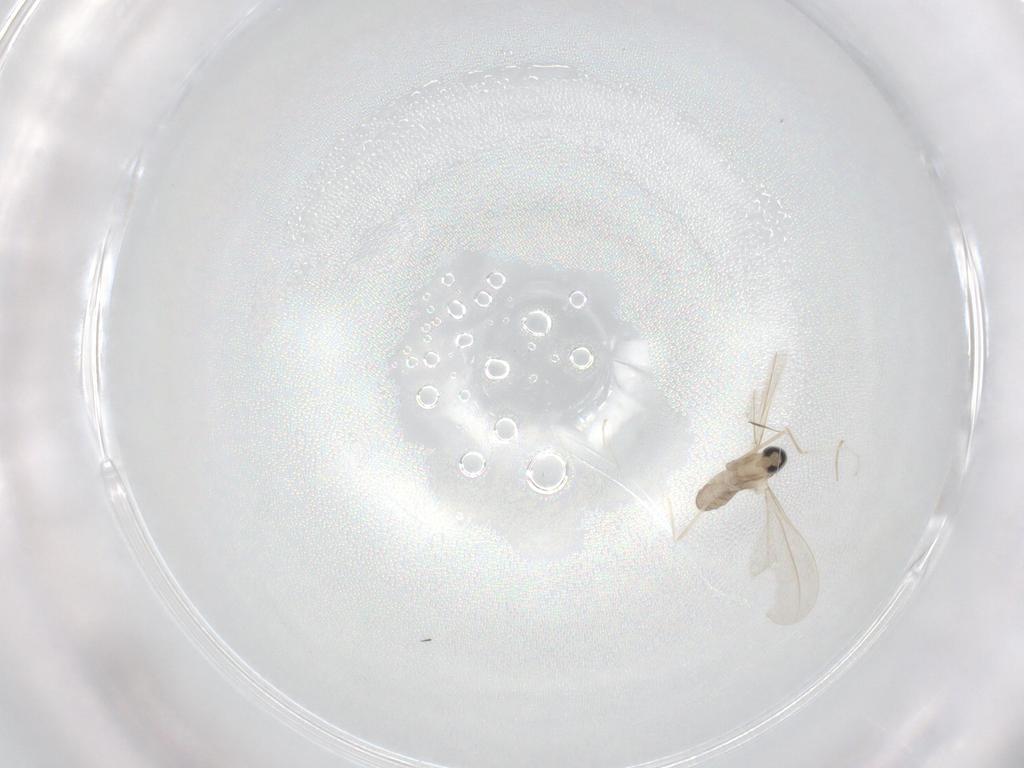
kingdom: Animalia
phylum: Arthropoda
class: Insecta
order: Diptera
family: Cecidomyiidae
